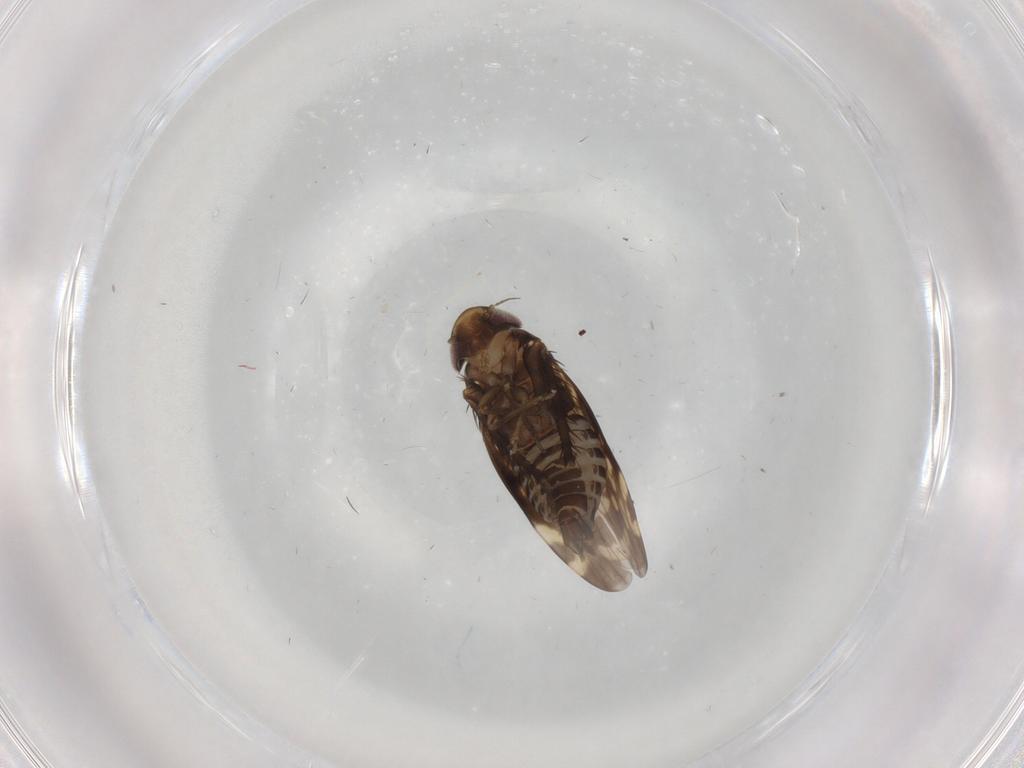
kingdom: Animalia
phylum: Arthropoda
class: Insecta
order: Hemiptera
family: Cicadellidae
